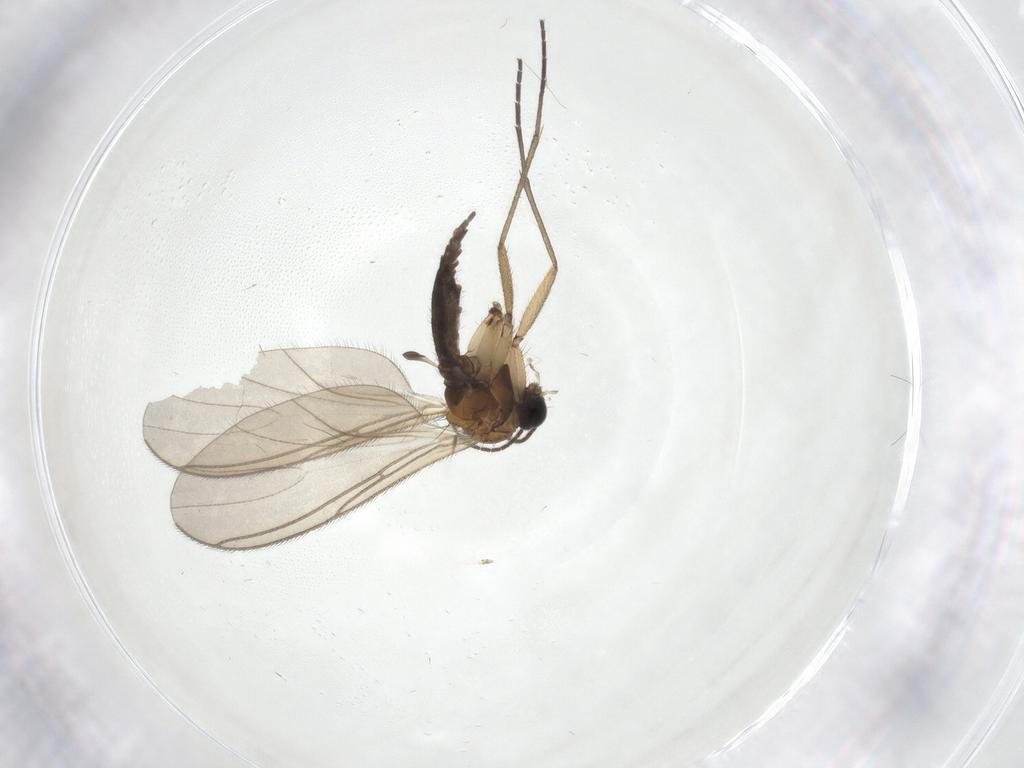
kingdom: Animalia
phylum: Arthropoda
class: Insecta
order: Diptera
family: Sciaridae
